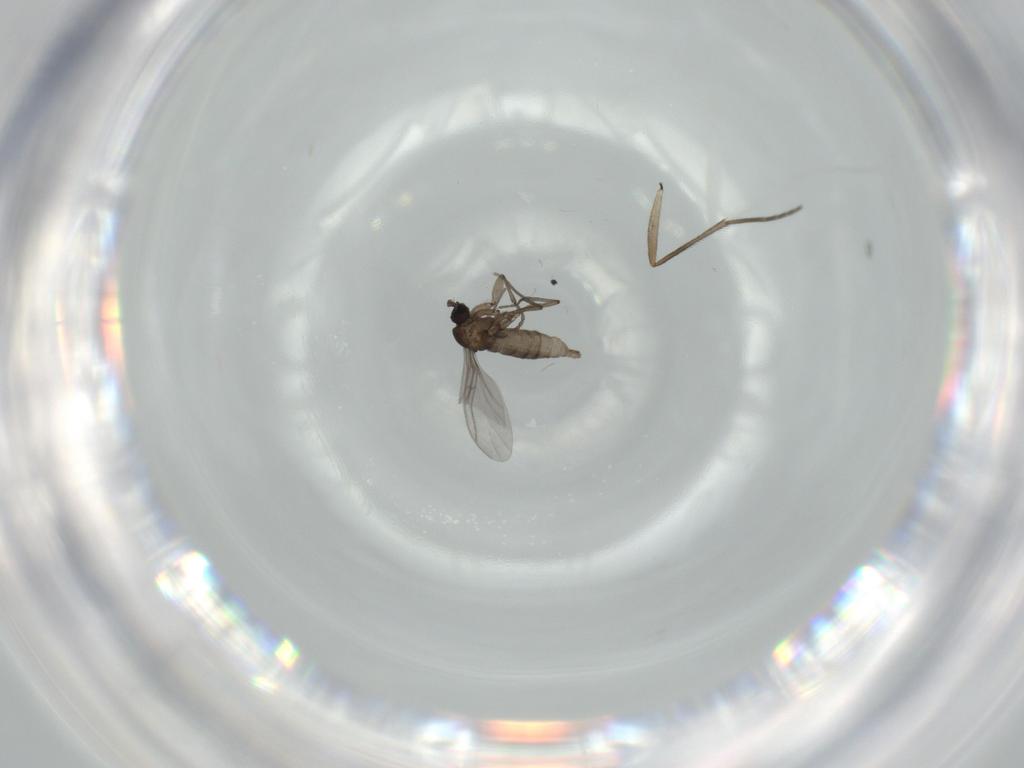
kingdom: Animalia
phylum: Arthropoda
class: Insecta
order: Diptera
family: Sciaridae
